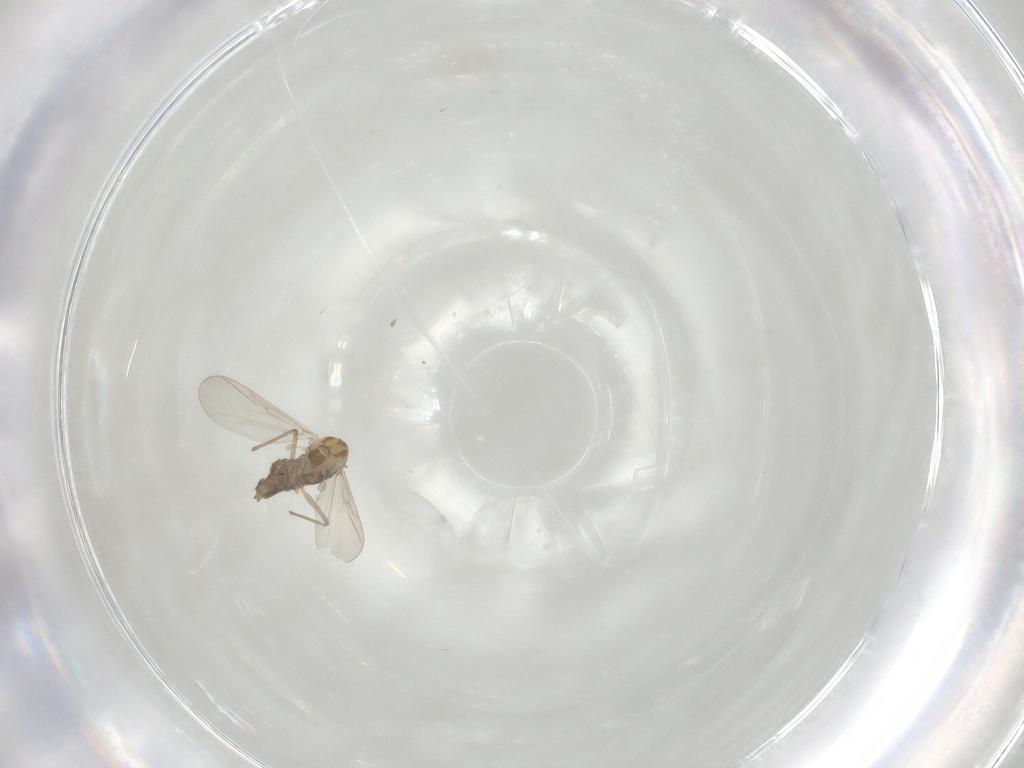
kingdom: Animalia
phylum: Arthropoda
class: Insecta
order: Diptera
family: Chironomidae
